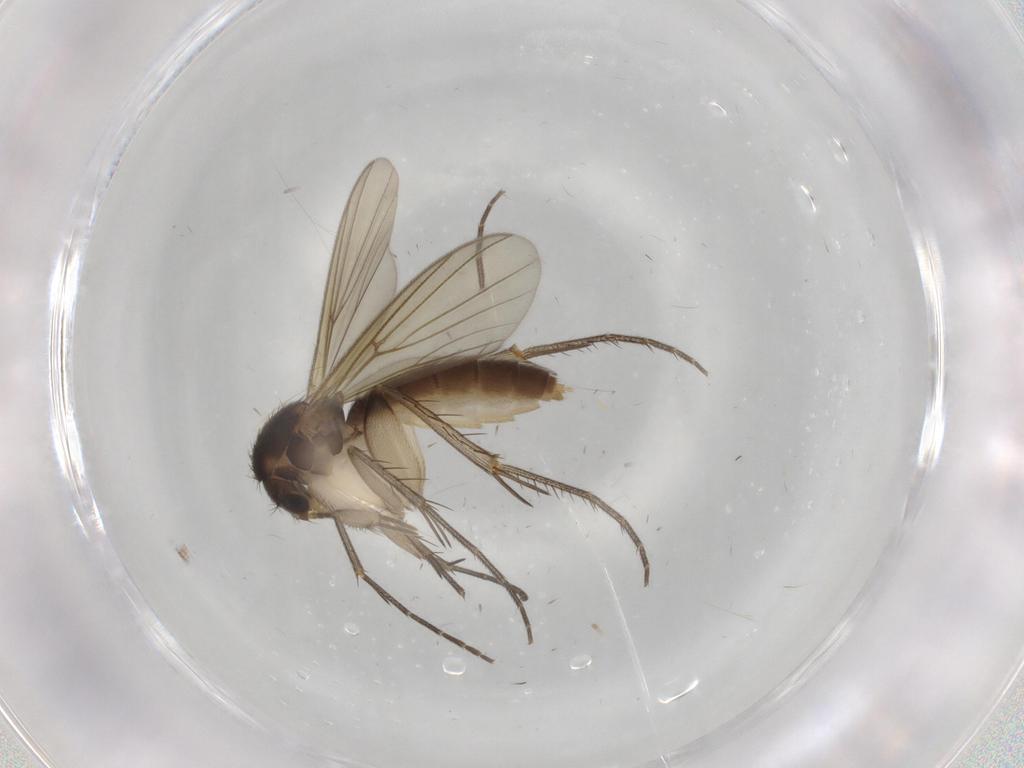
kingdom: Animalia
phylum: Arthropoda
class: Insecta
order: Diptera
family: Mycetophilidae
